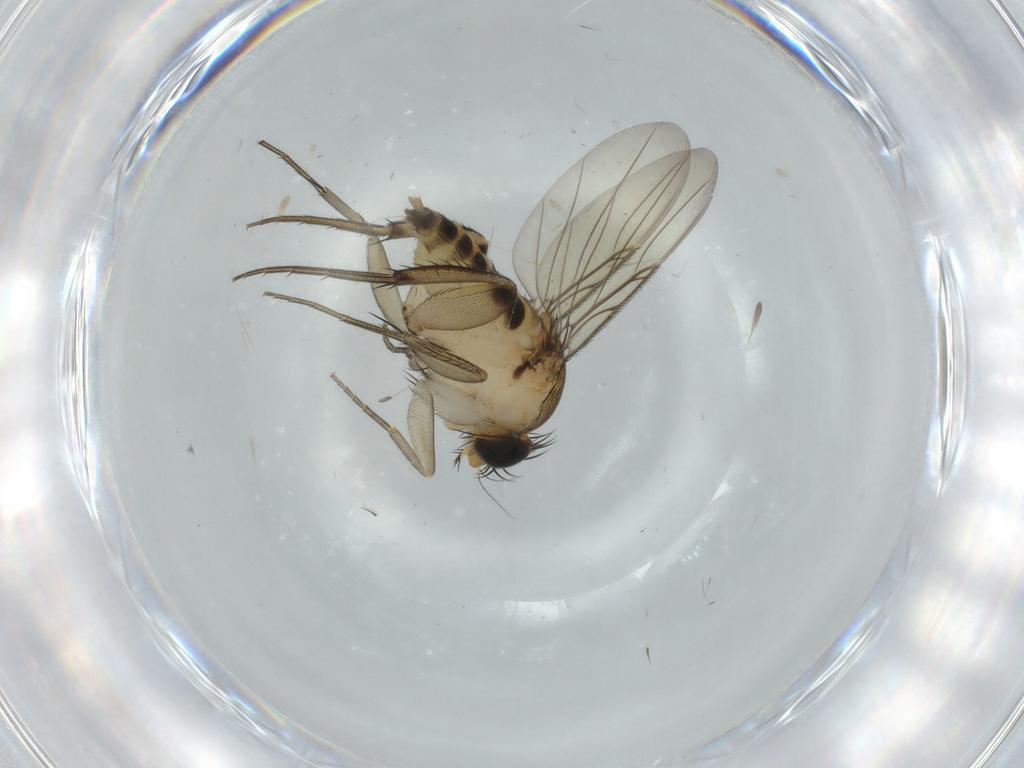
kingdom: Animalia
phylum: Arthropoda
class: Insecta
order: Diptera
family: Phoridae
